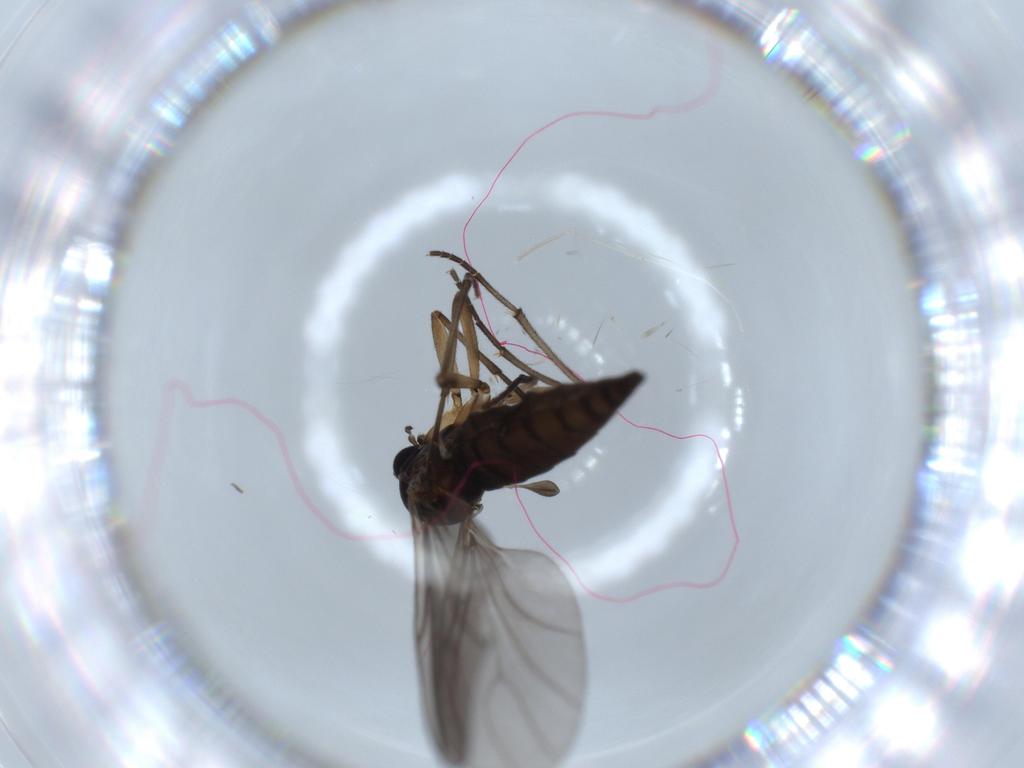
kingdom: Animalia
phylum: Arthropoda
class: Insecta
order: Diptera
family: Sciaridae
